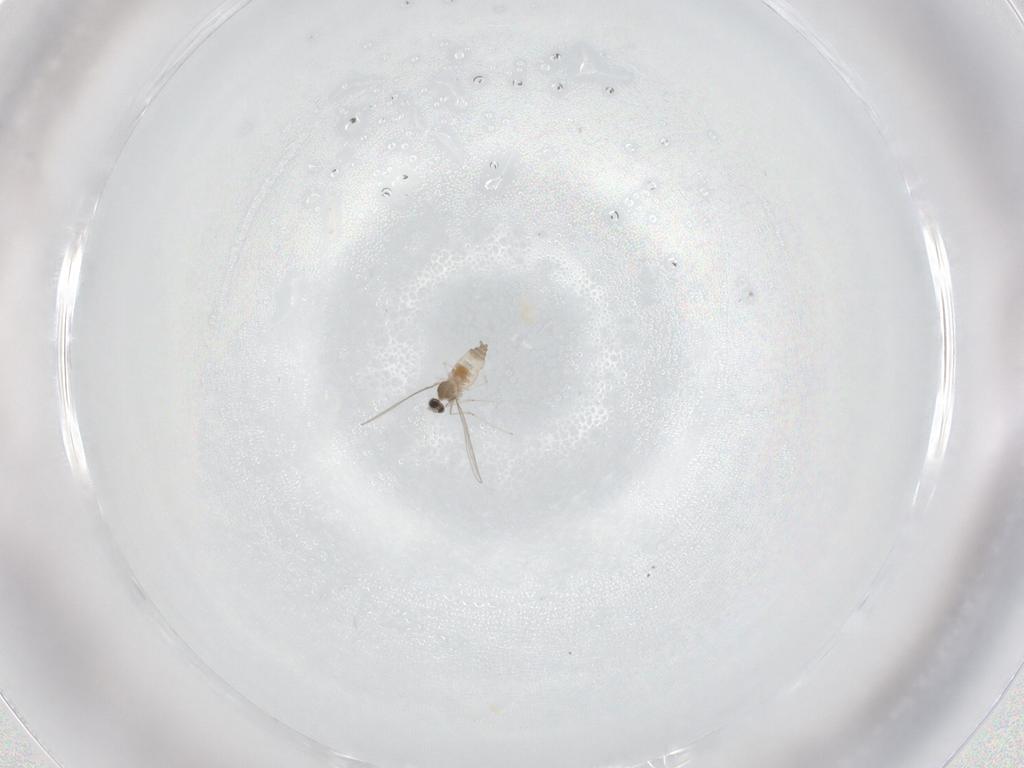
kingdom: Animalia
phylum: Arthropoda
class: Insecta
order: Diptera
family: Cecidomyiidae
